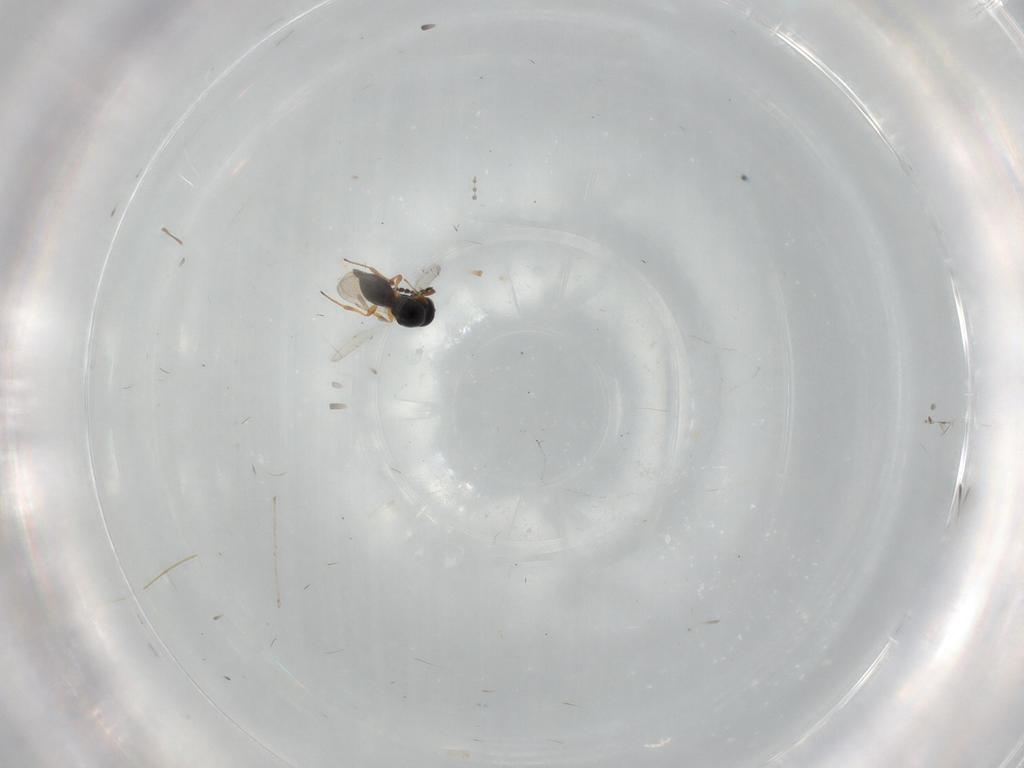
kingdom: Animalia
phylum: Arthropoda
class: Insecta
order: Hymenoptera
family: Platygastridae
